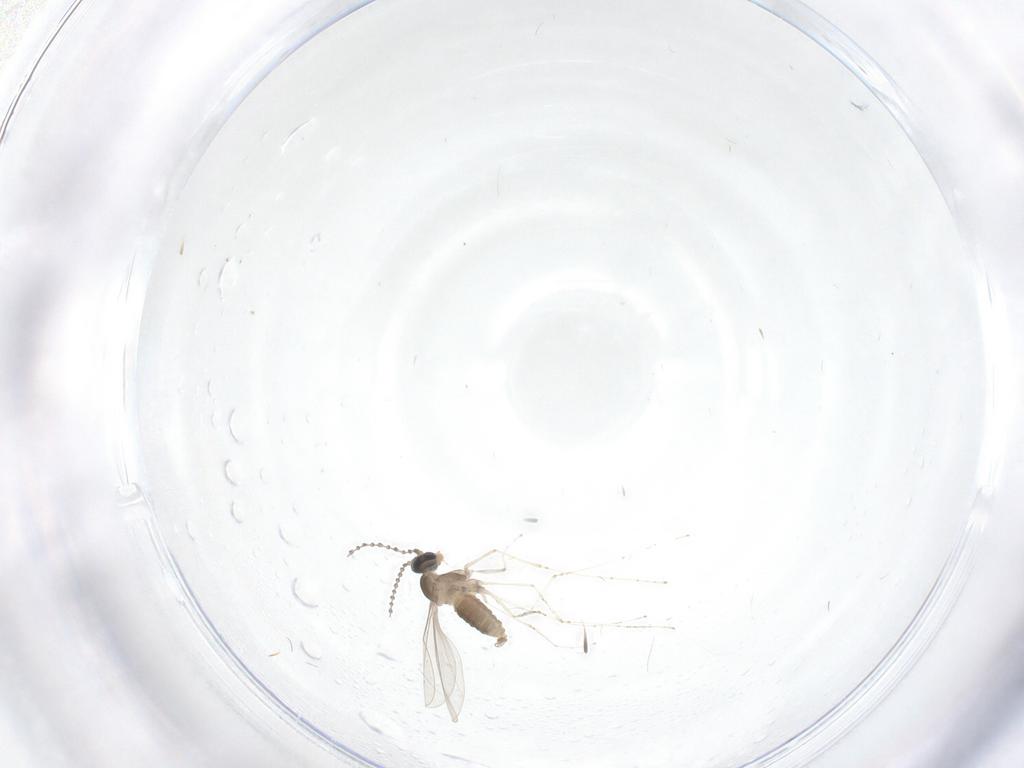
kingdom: Animalia
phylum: Arthropoda
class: Insecta
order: Diptera
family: Cecidomyiidae
